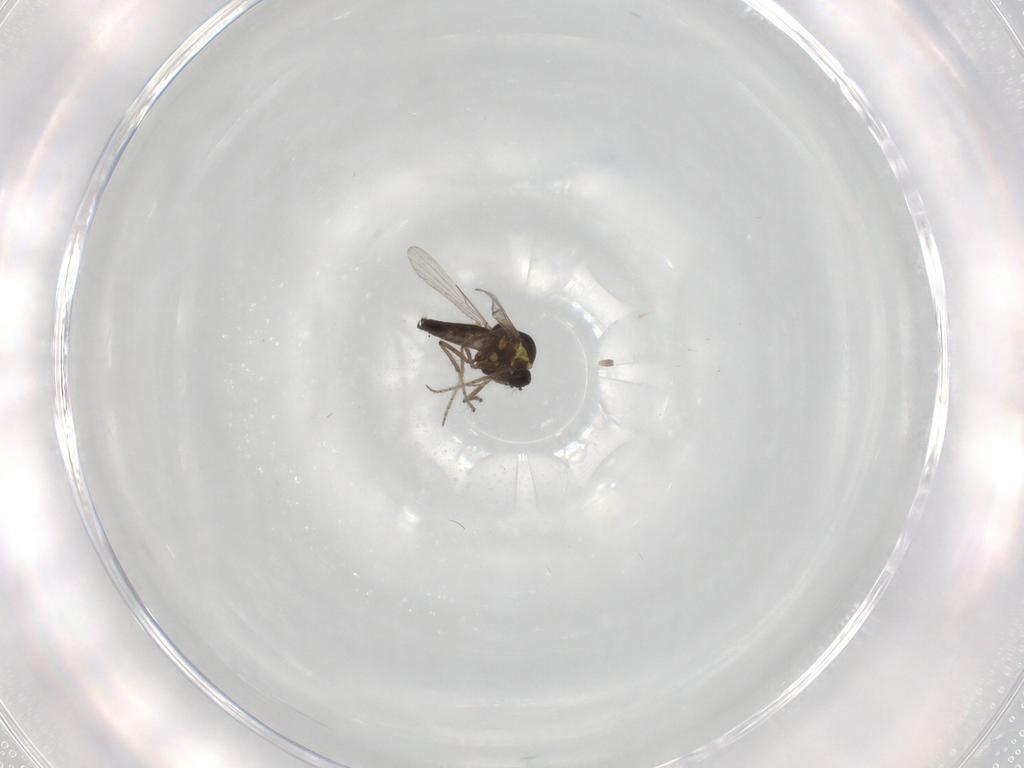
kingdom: Animalia
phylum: Arthropoda
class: Insecta
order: Diptera
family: Ceratopogonidae
